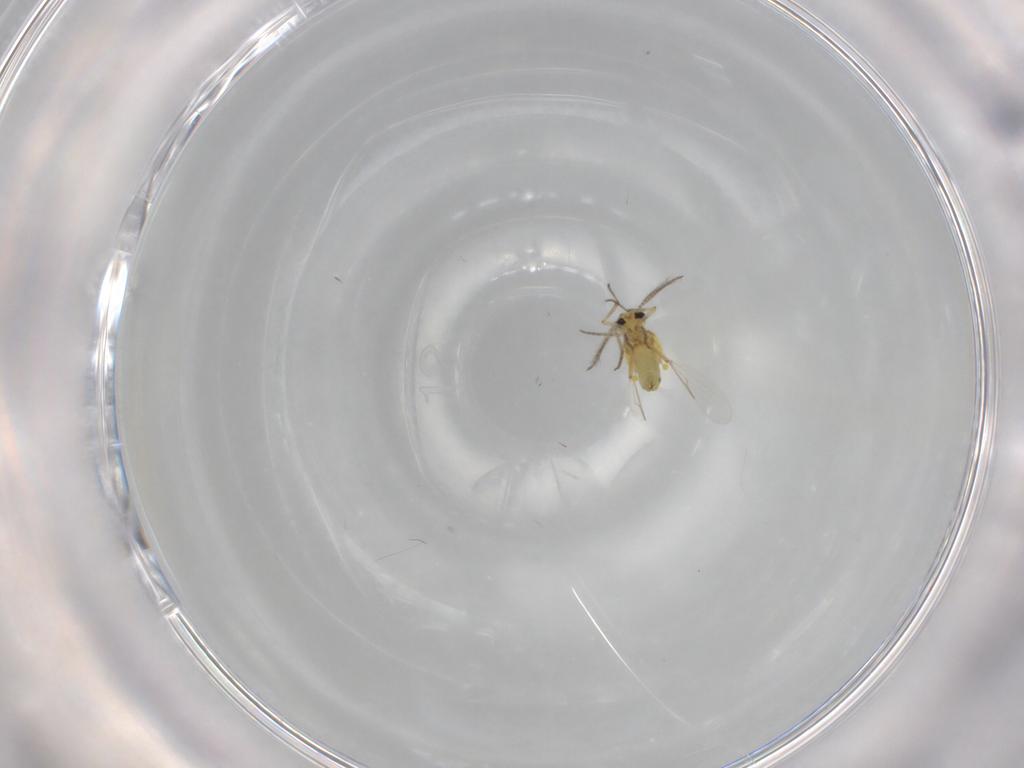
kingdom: Animalia
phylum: Arthropoda
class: Insecta
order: Diptera
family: Ceratopogonidae
